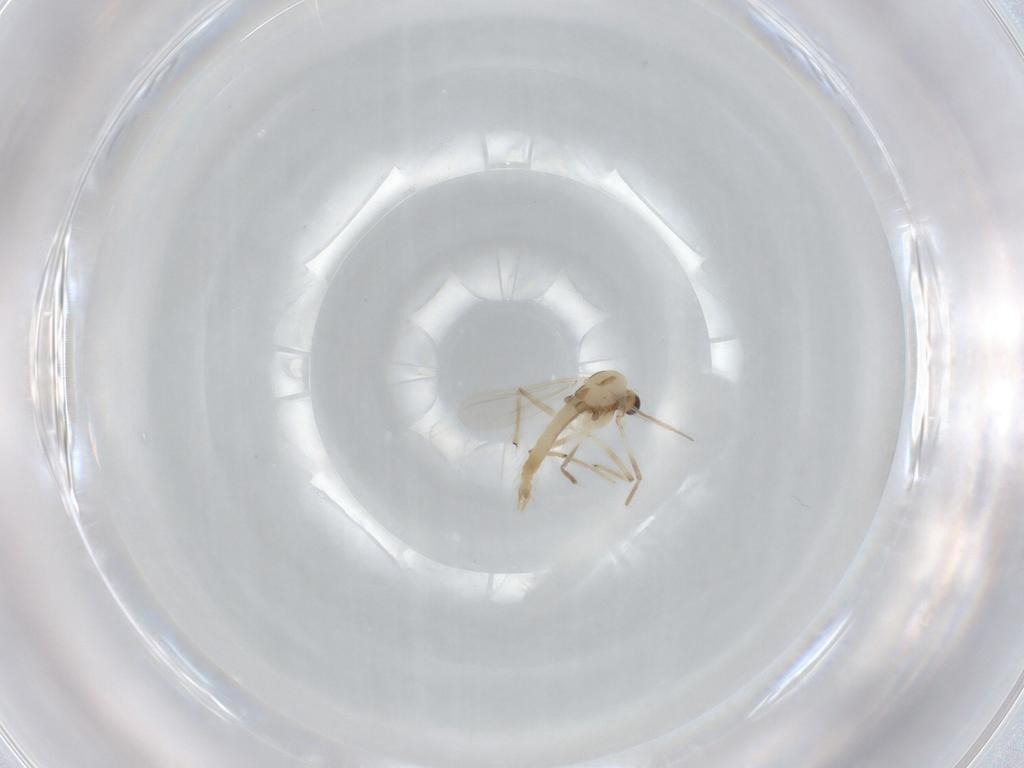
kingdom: Animalia
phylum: Arthropoda
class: Insecta
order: Diptera
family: Chironomidae
